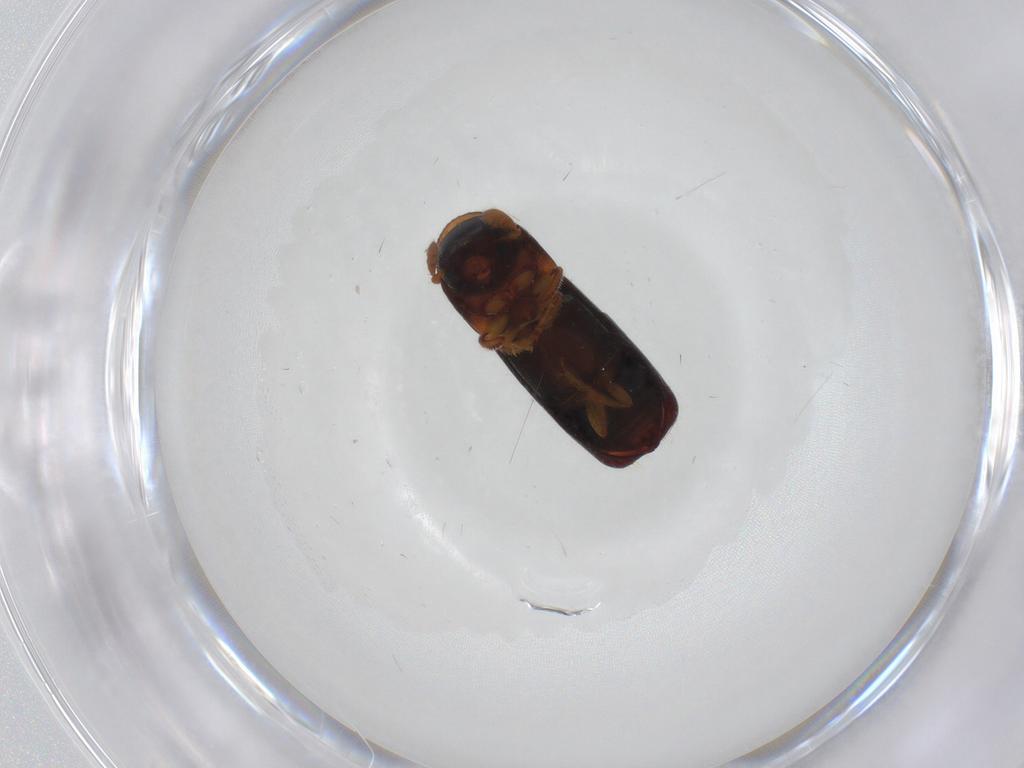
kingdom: Animalia
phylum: Arthropoda
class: Insecta
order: Coleoptera
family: Curculionidae
